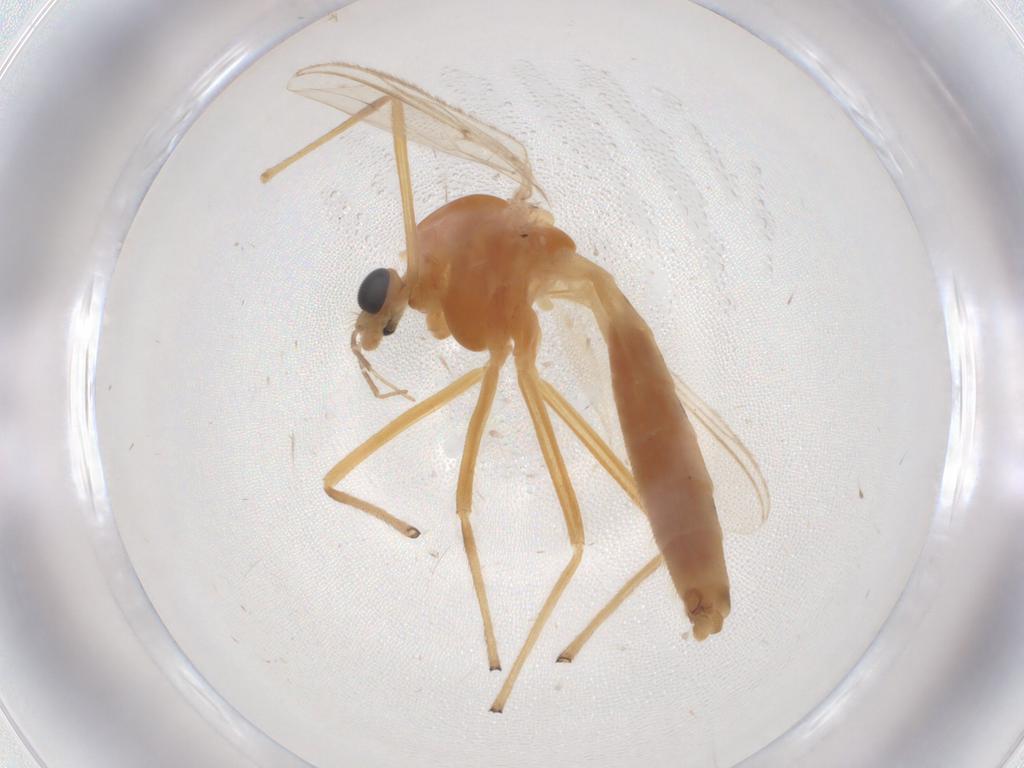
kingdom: Animalia
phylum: Arthropoda
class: Insecta
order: Diptera
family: Chironomidae
